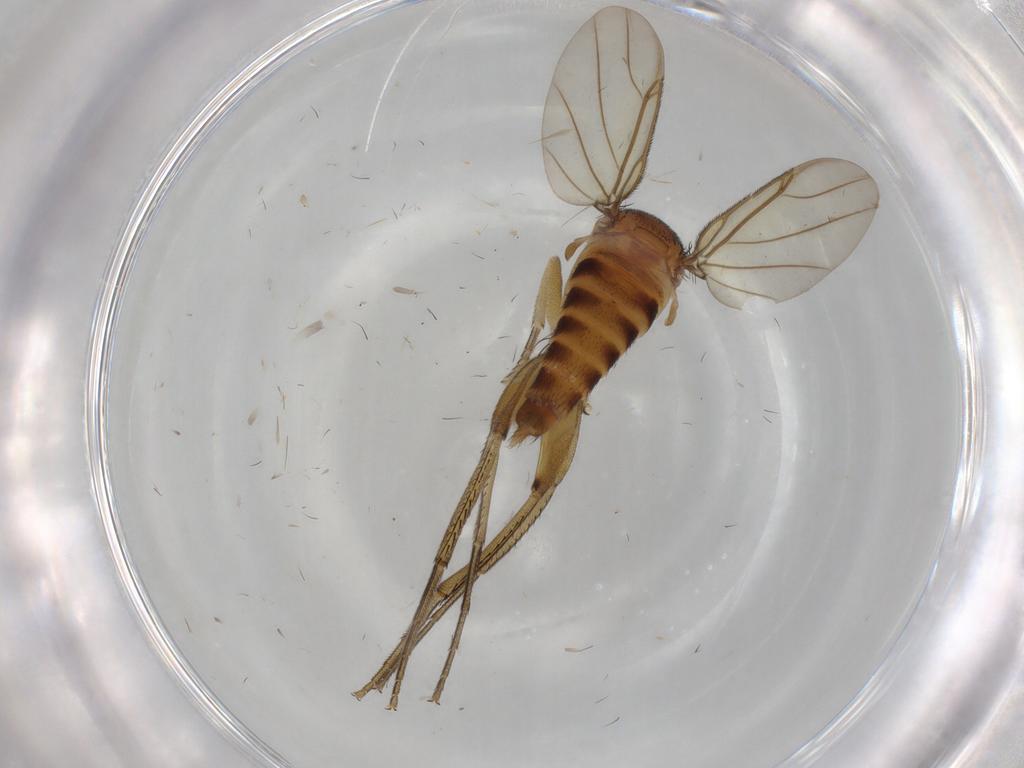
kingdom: Animalia
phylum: Arthropoda
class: Insecta
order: Diptera
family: Phoridae
